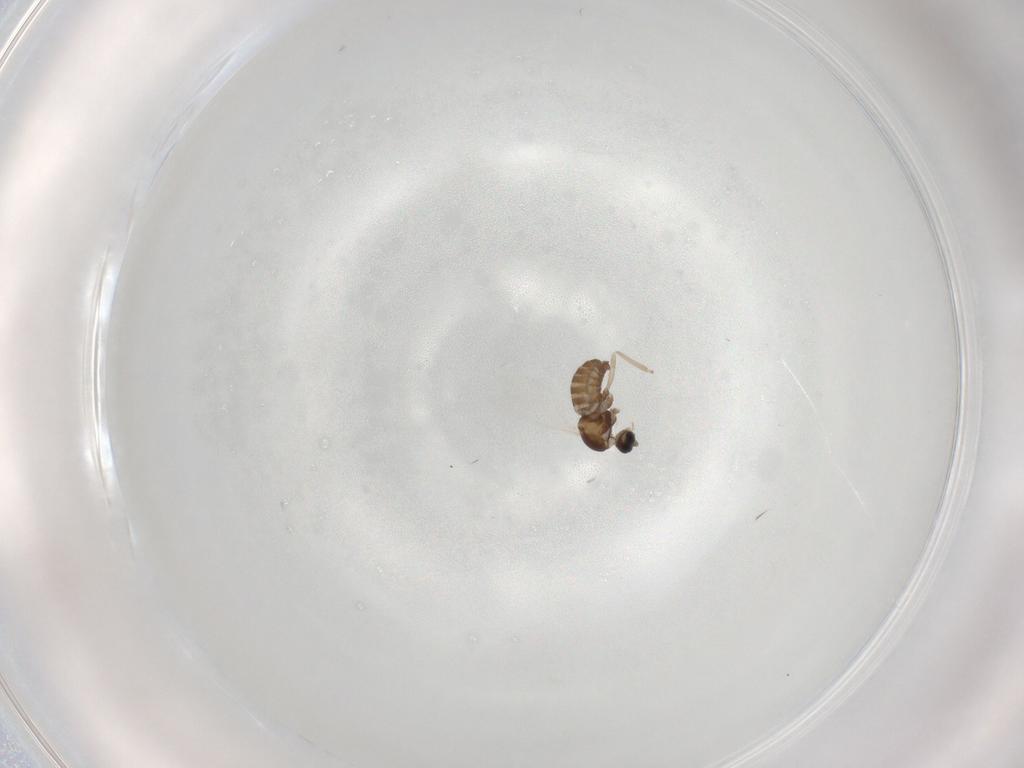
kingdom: Animalia
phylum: Arthropoda
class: Insecta
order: Diptera
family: Cecidomyiidae
